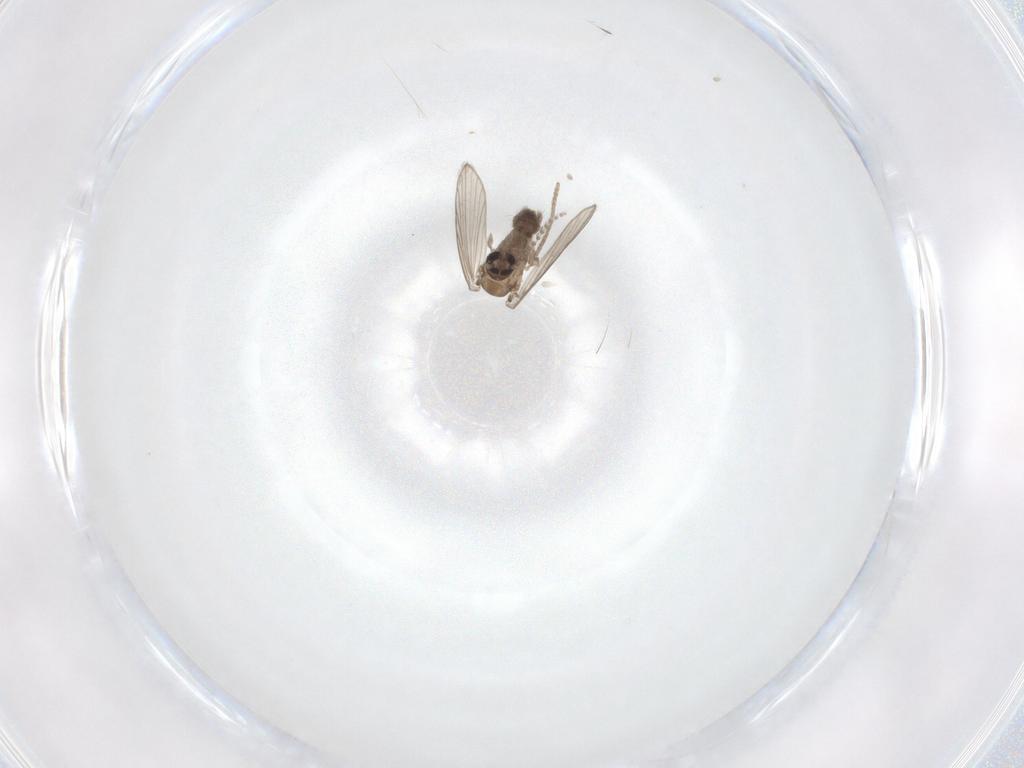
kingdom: Animalia
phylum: Arthropoda
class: Insecta
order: Diptera
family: Psychodidae
